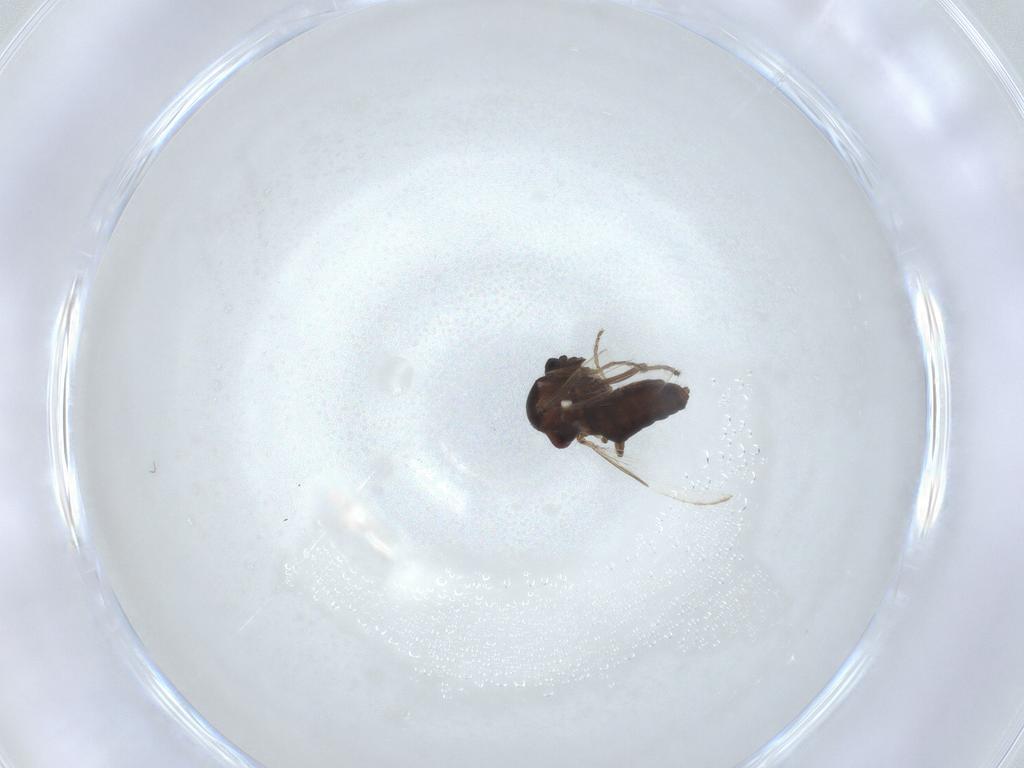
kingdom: Animalia
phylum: Arthropoda
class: Insecta
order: Diptera
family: Ceratopogonidae
